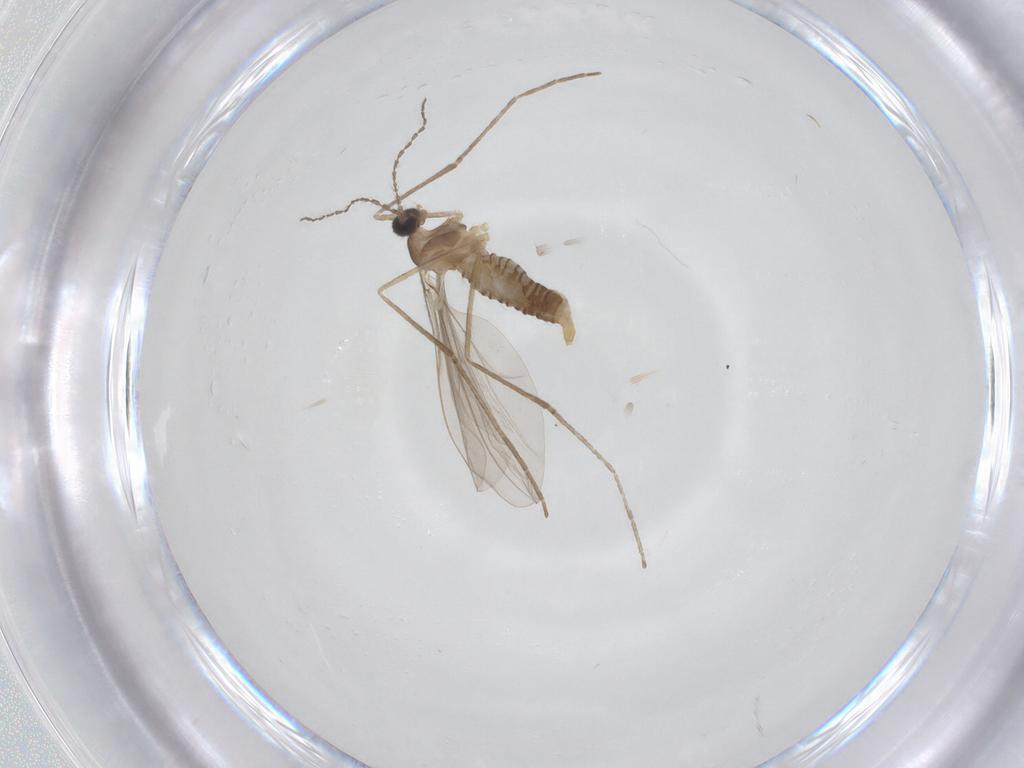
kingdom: Animalia
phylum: Arthropoda
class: Insecta
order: Diptera
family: Cecidomyiidae
